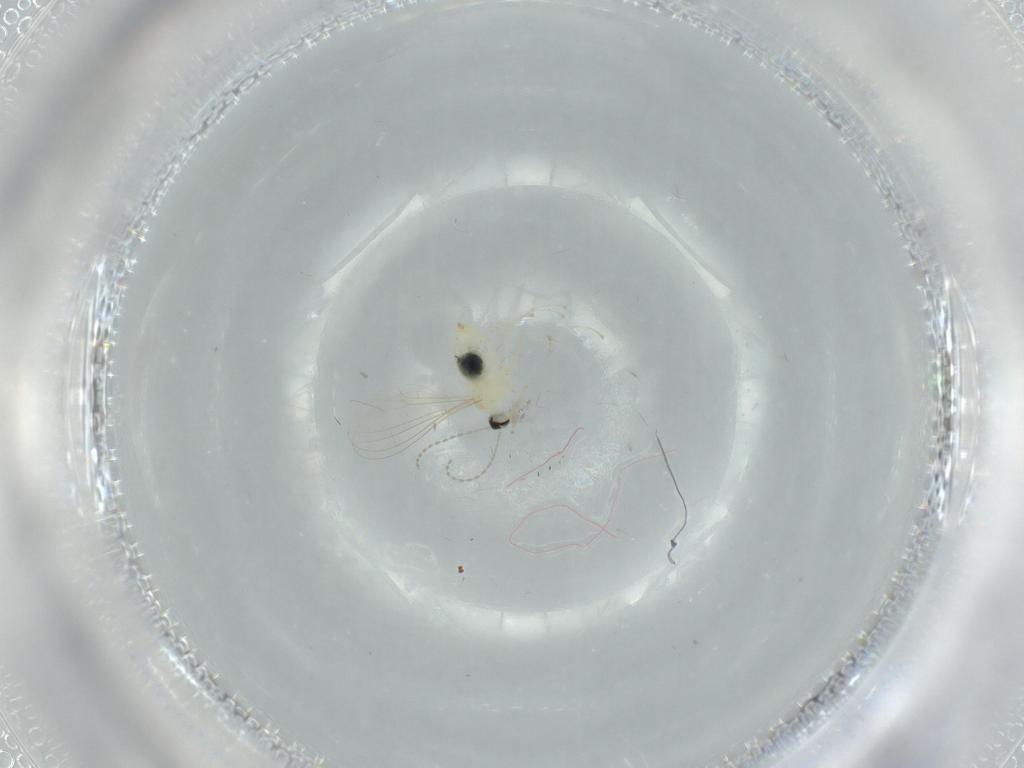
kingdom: Animalia
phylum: Arthropoda
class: Insecta
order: Diptera
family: Cecidomyiidae
